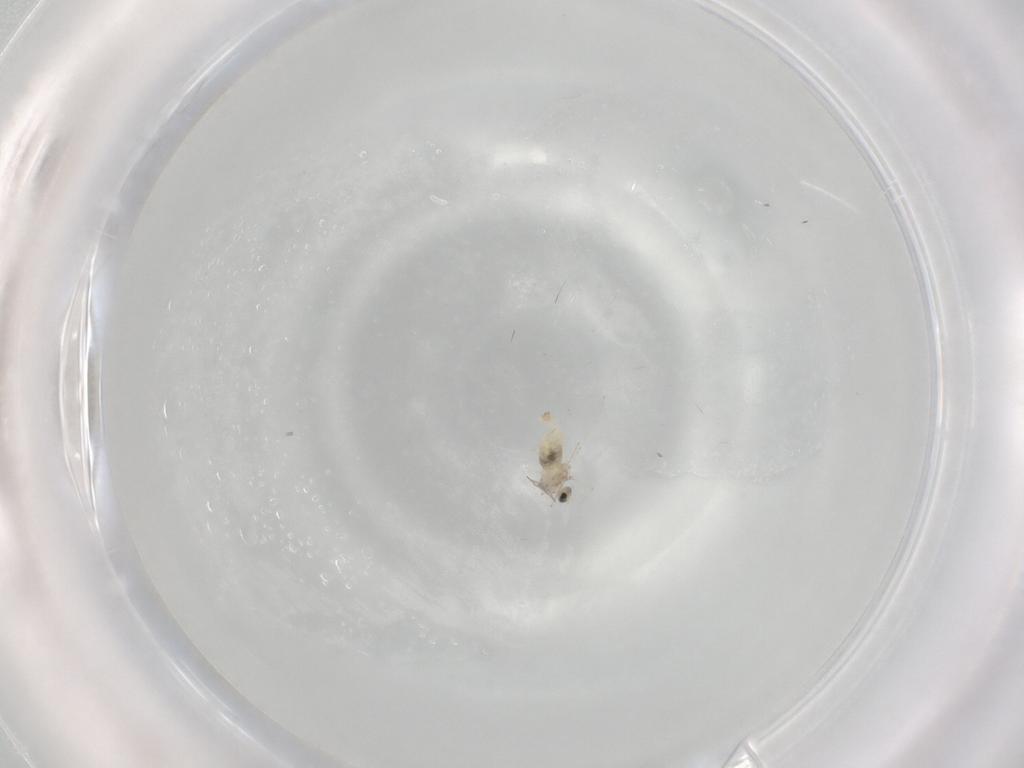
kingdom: Animalia
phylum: Arthropoda
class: Insecta
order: Diptera
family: Cecidomyiidae
